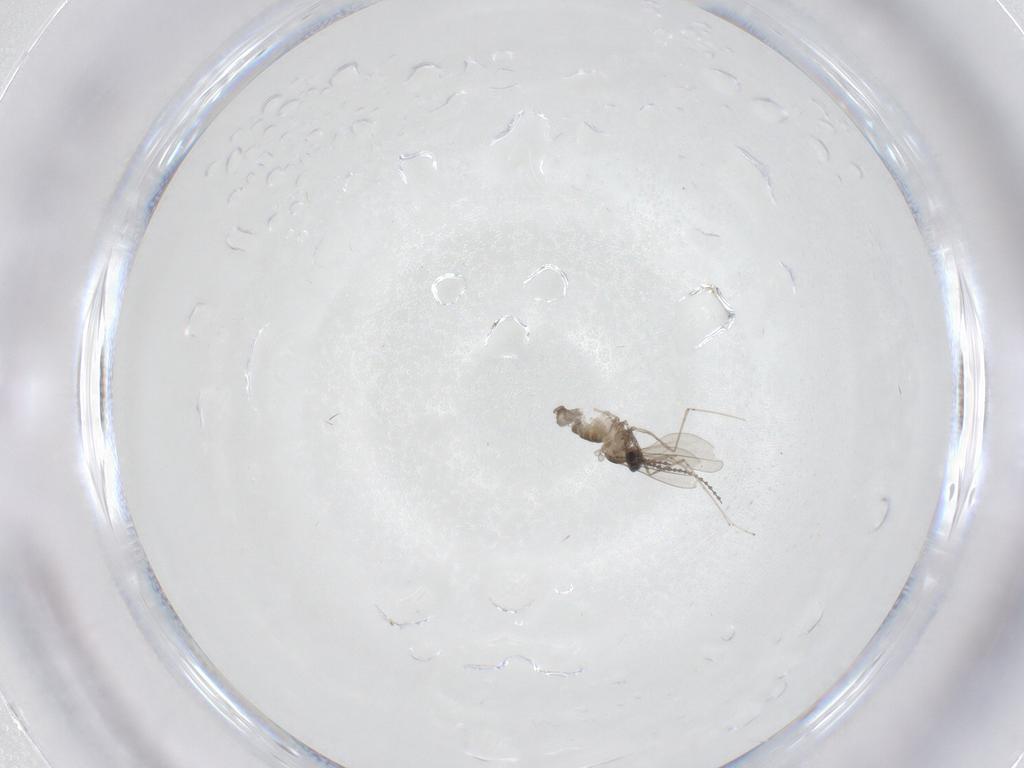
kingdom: Animalia
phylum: Arthropoda
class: Insecta
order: Diptera
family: Cecidomyiidae
